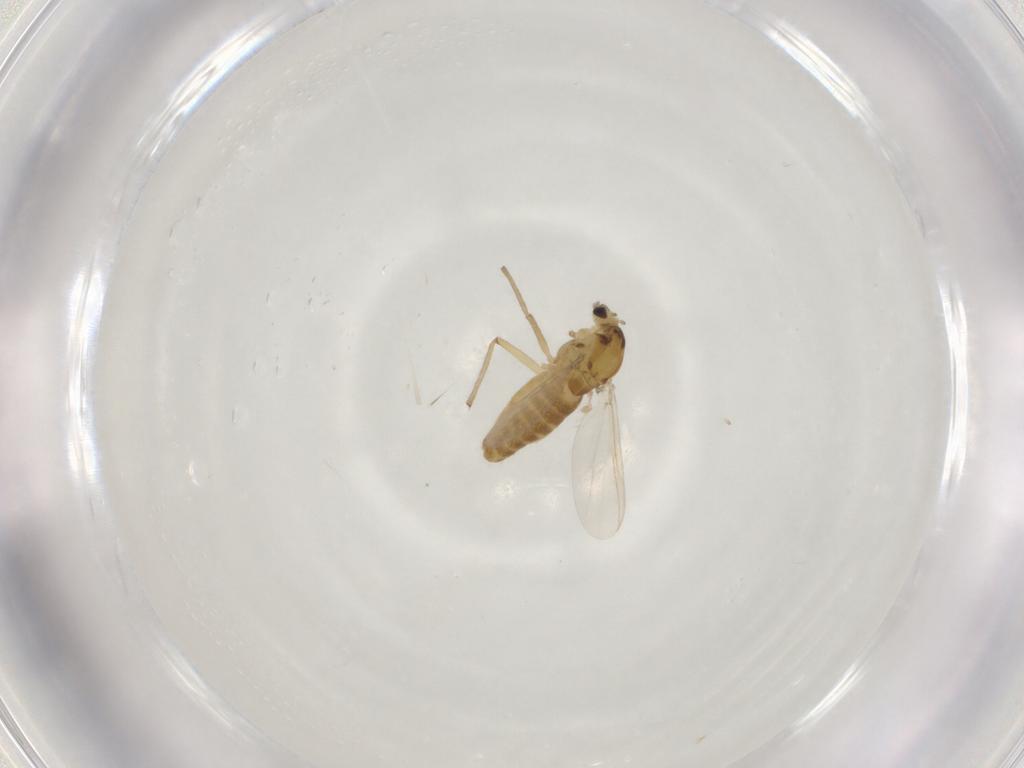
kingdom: Animalia
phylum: Arthropoda
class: Insecta
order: Diptera
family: Chironomidae
